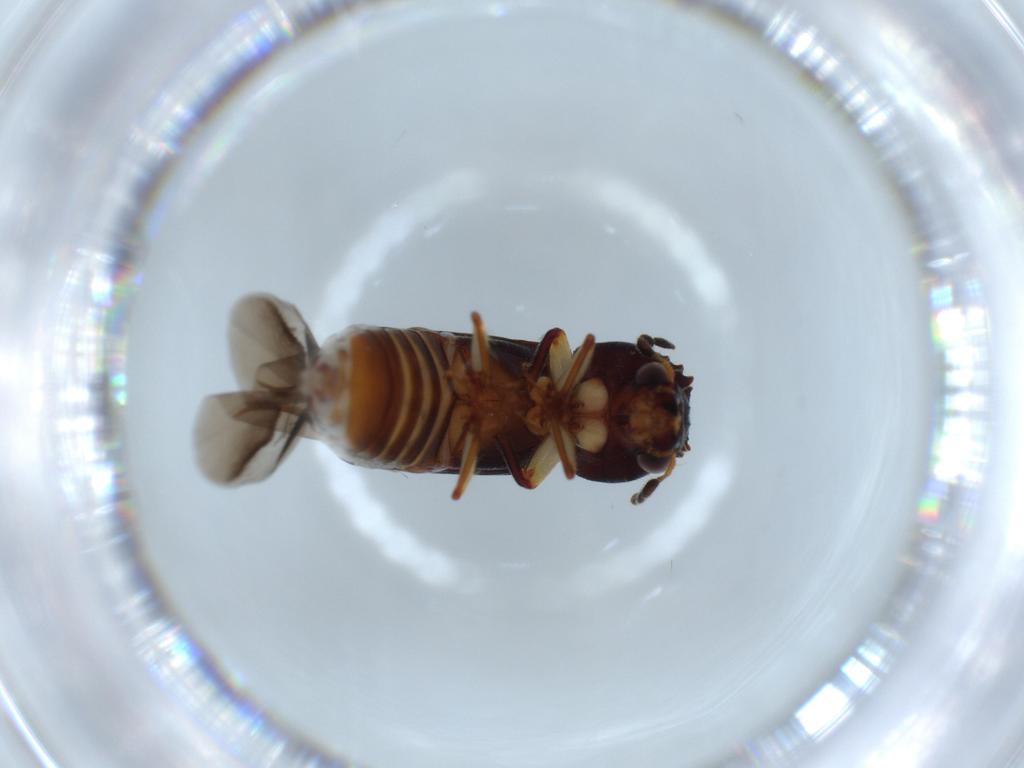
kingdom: Animalia
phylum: Arthropoda
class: Insecta
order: Coleoptera
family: Bostrichidae
